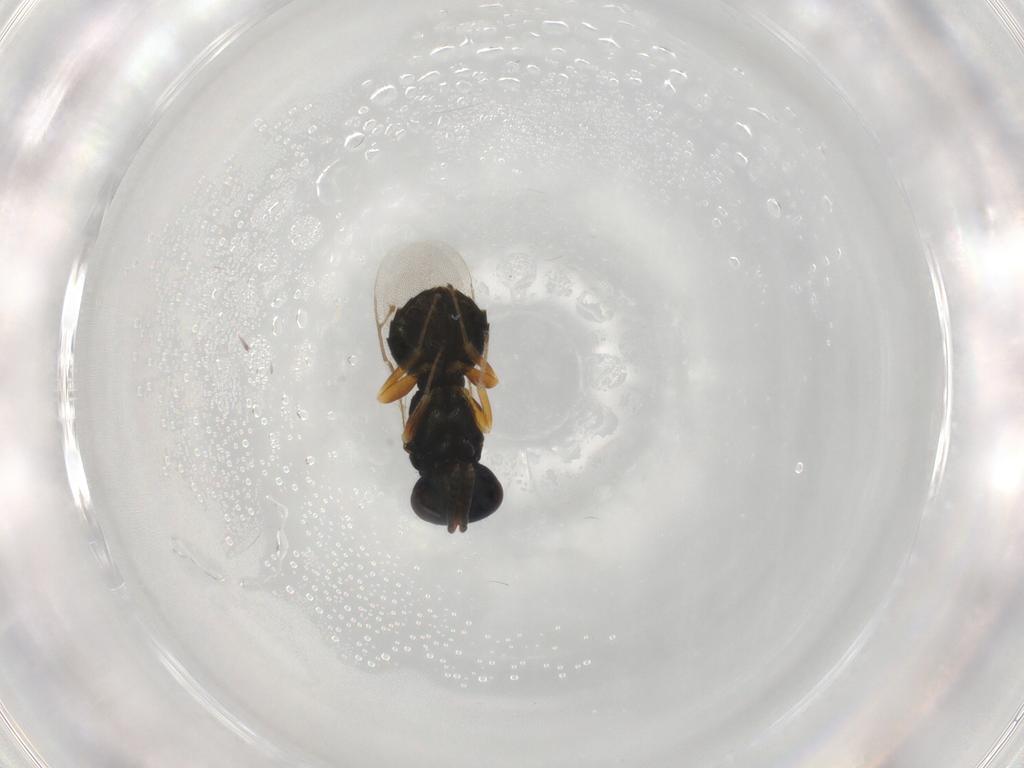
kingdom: Animalia
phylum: Arthropoda
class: Insecta
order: Hymenoptera
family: Pteromalidae
